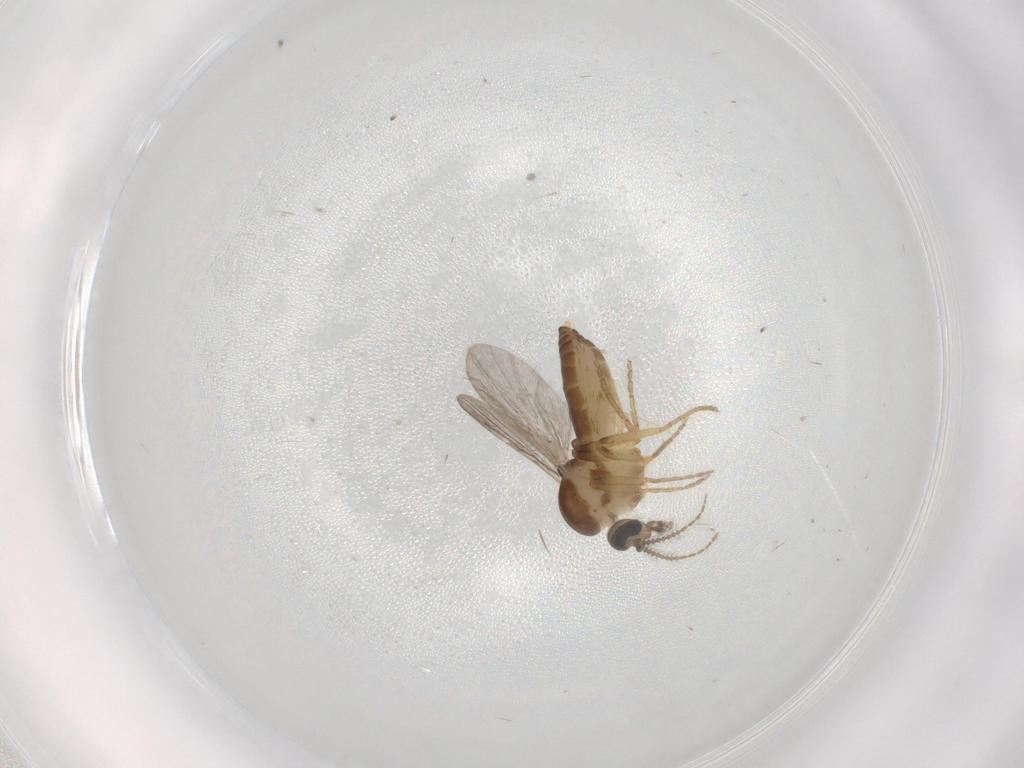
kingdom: Animalia
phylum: Arthropoda
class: Insecta
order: Diptera
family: Ceratopogonidae
